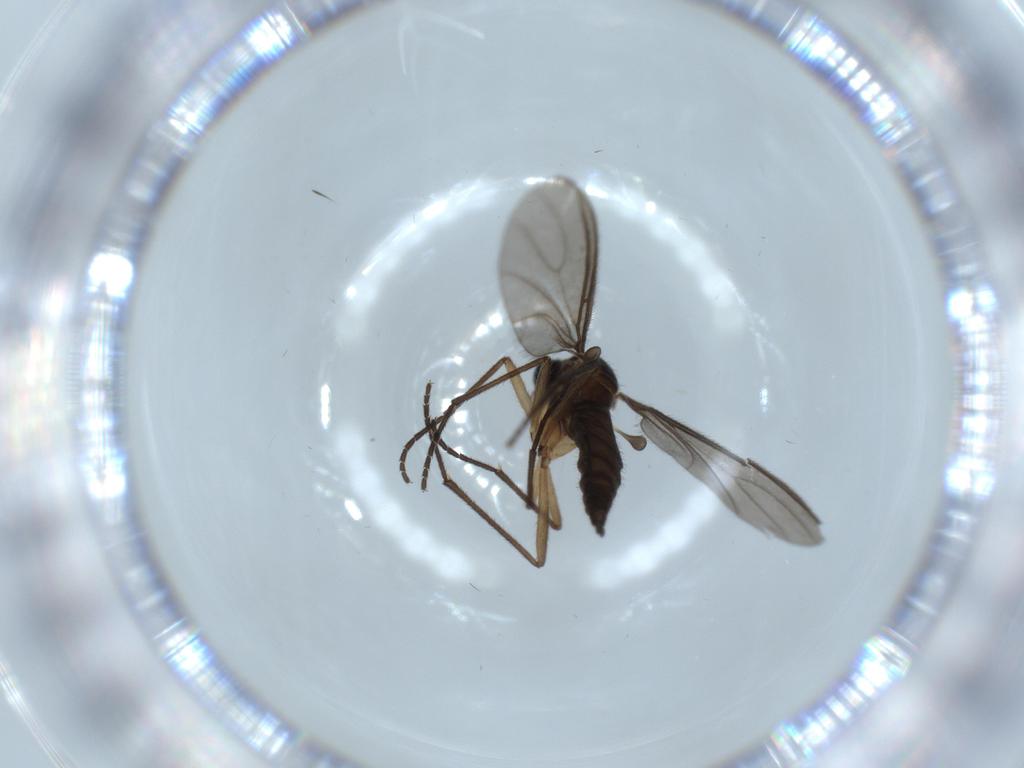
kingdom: Animalia
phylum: Arthropoda
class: Insecta
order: Diptera
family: Sciaridae
